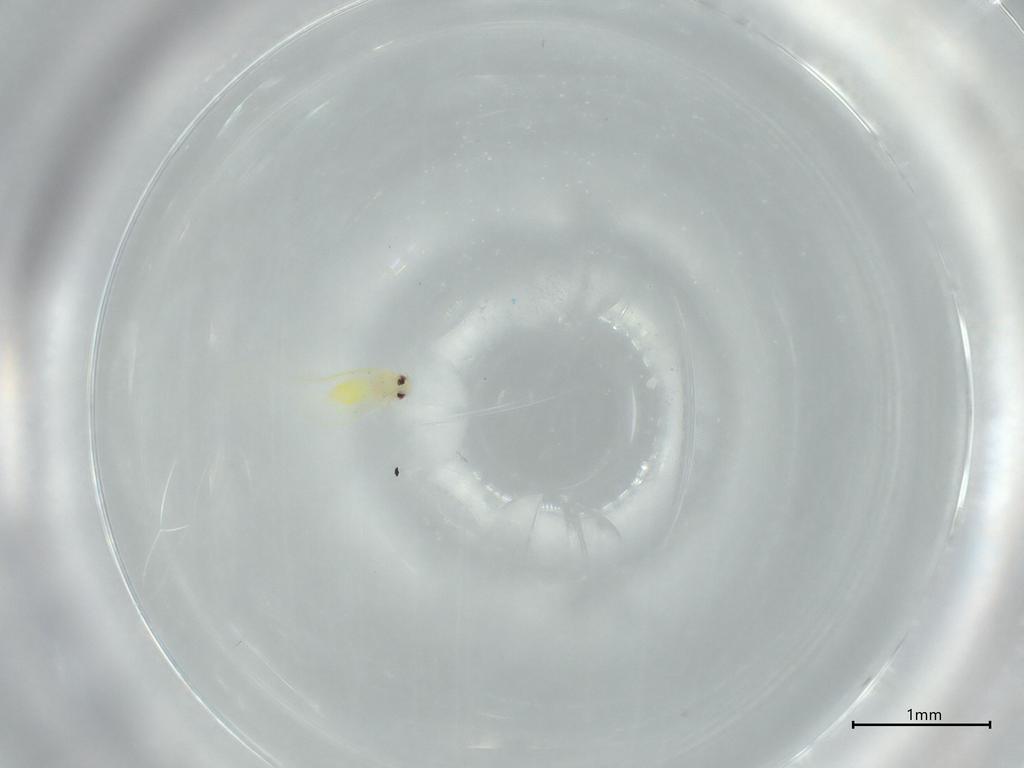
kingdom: Animalia
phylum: Arthropoda
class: Insecta
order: Hemiptera
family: Aleyrodidae
